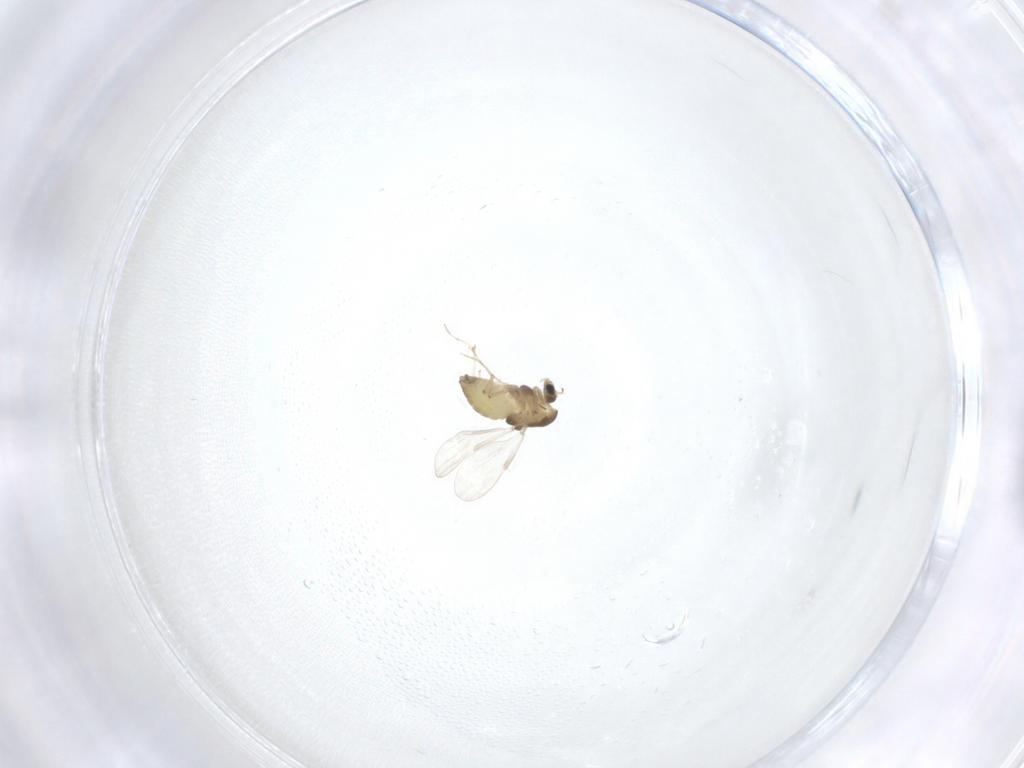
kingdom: Animalia
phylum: Arthropoda
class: Insecta
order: Diptera
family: Chironomidae
